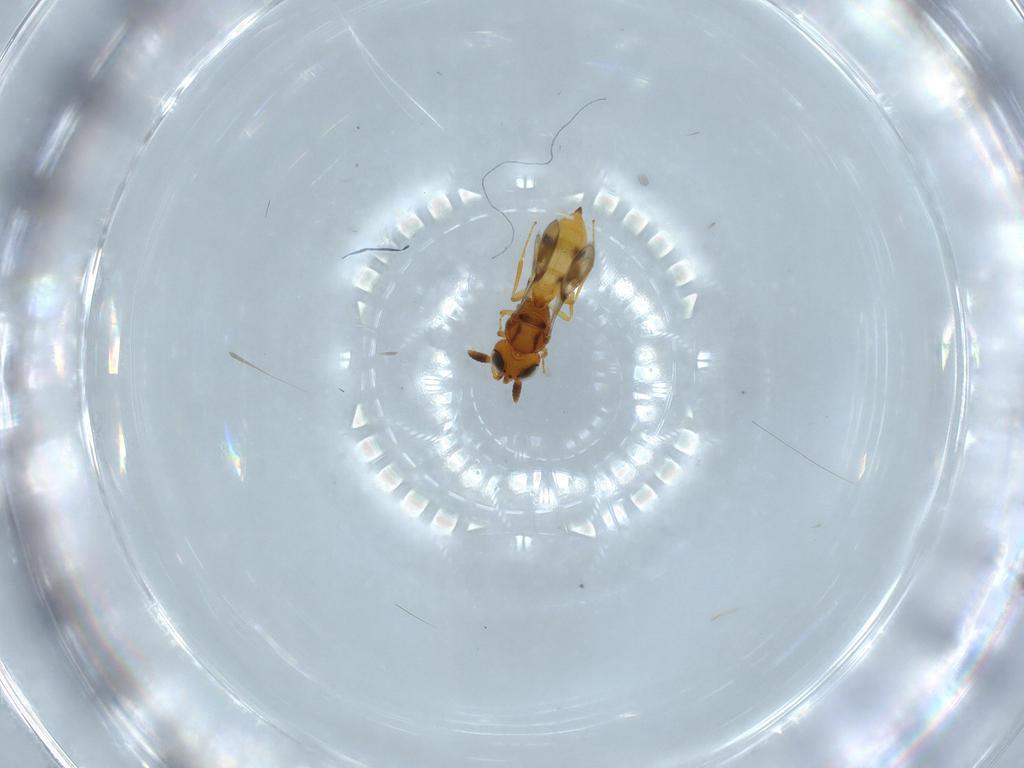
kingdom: Animalia
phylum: Arthropoda
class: Insecta
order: Hymenoptera
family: Scelionidae
